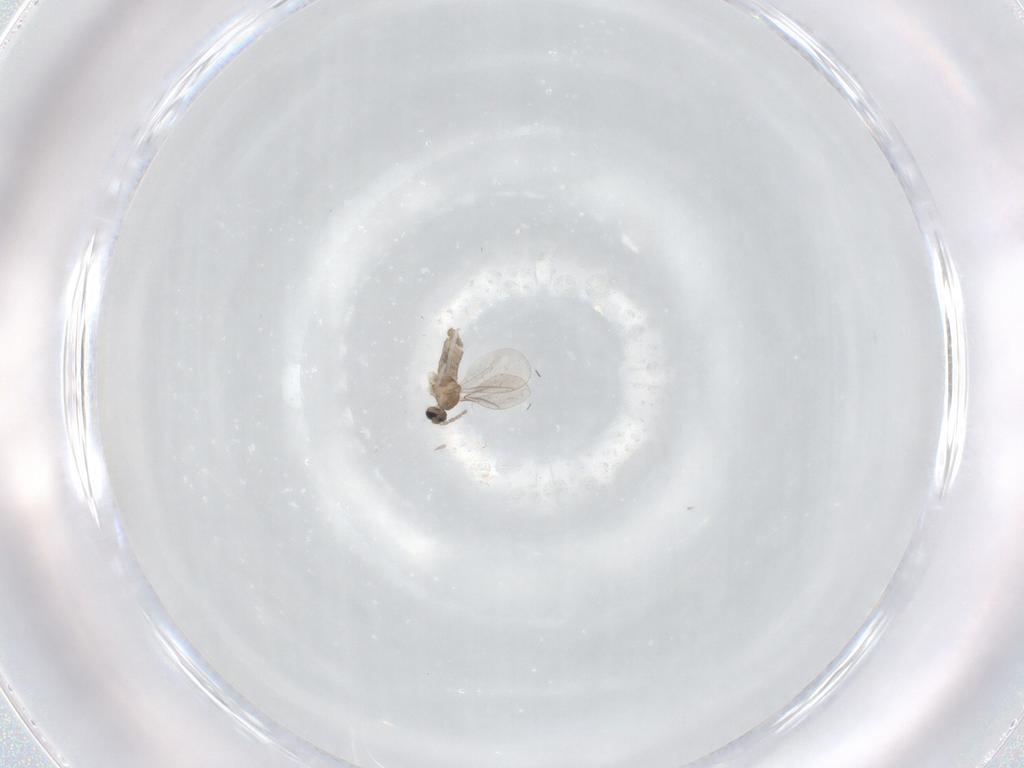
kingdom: Animalia
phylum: Arthropoda
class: Insecta
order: Diptera
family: Cecidomyiidae
